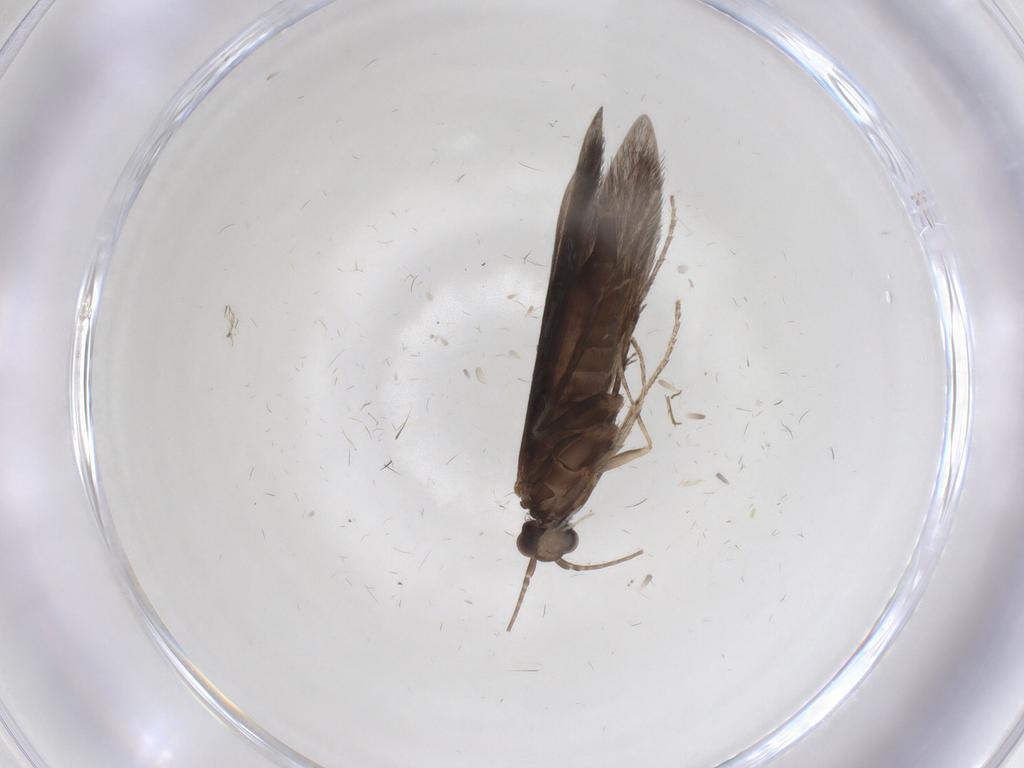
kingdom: Animalia
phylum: Arthropoda
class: Insecta
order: Trichoptera
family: Xiphocentronidae
